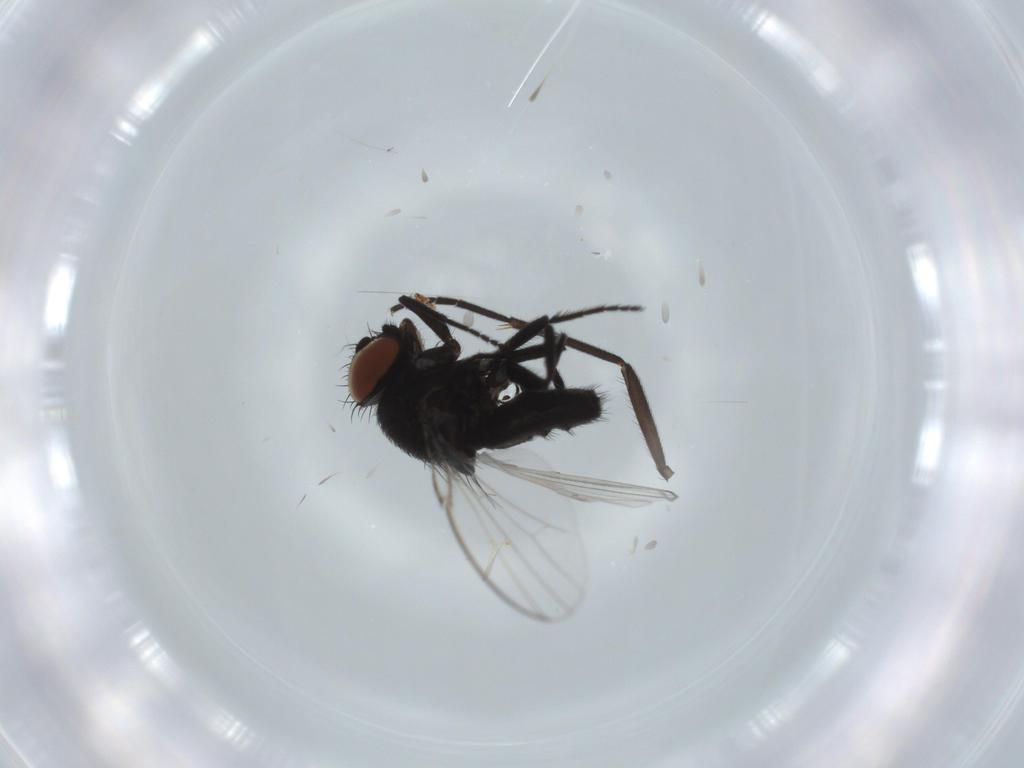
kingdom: Animalia
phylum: Arthropoda
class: Insecta
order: Diptera
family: Milichiidae
